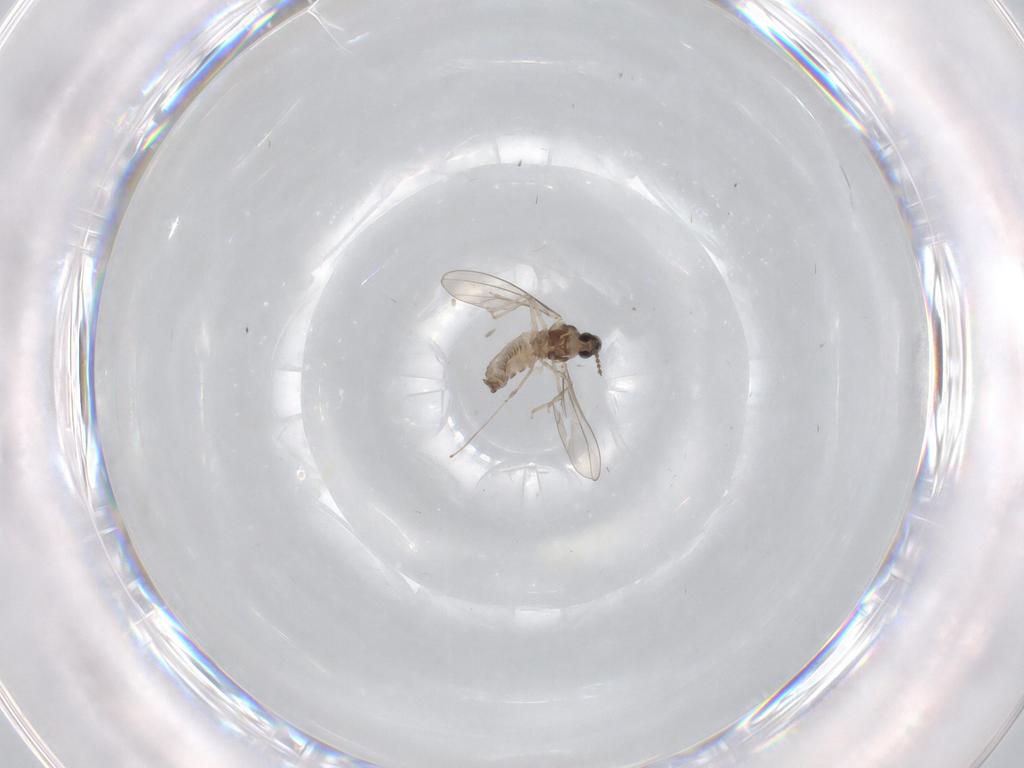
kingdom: Animalia
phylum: Arthropoda
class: Insecta
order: Diptera
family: Cecidomyiidae
